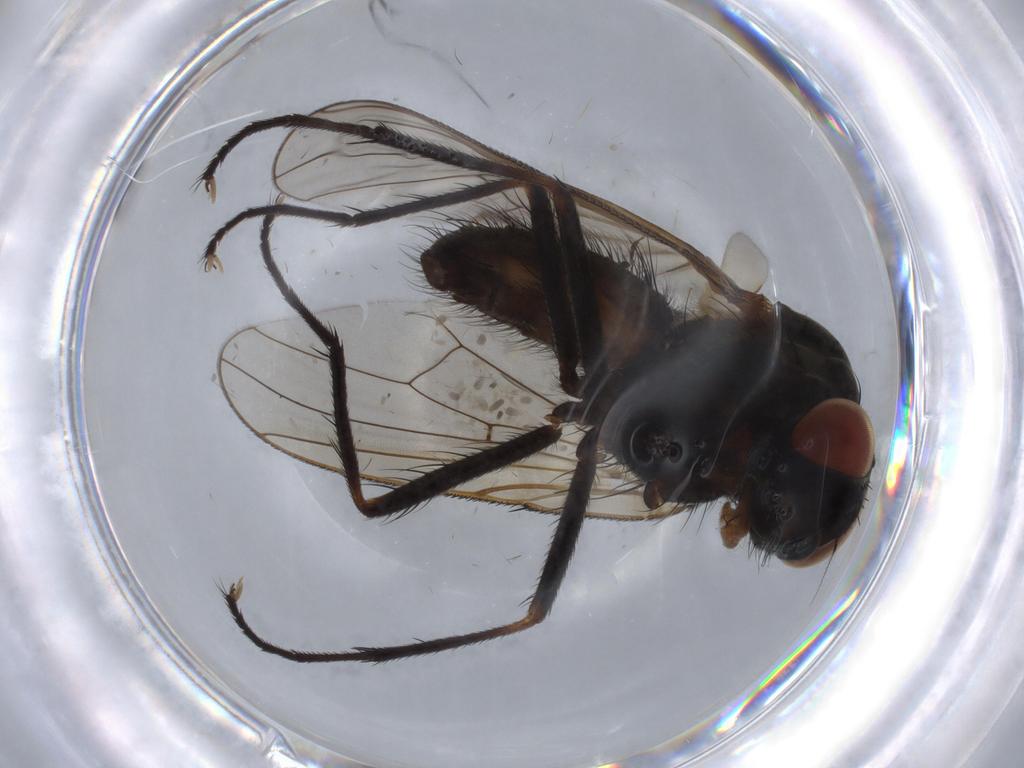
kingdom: Animalia
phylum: Arthropoda
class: Insecta
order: Diptera
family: Anthomyiidae
